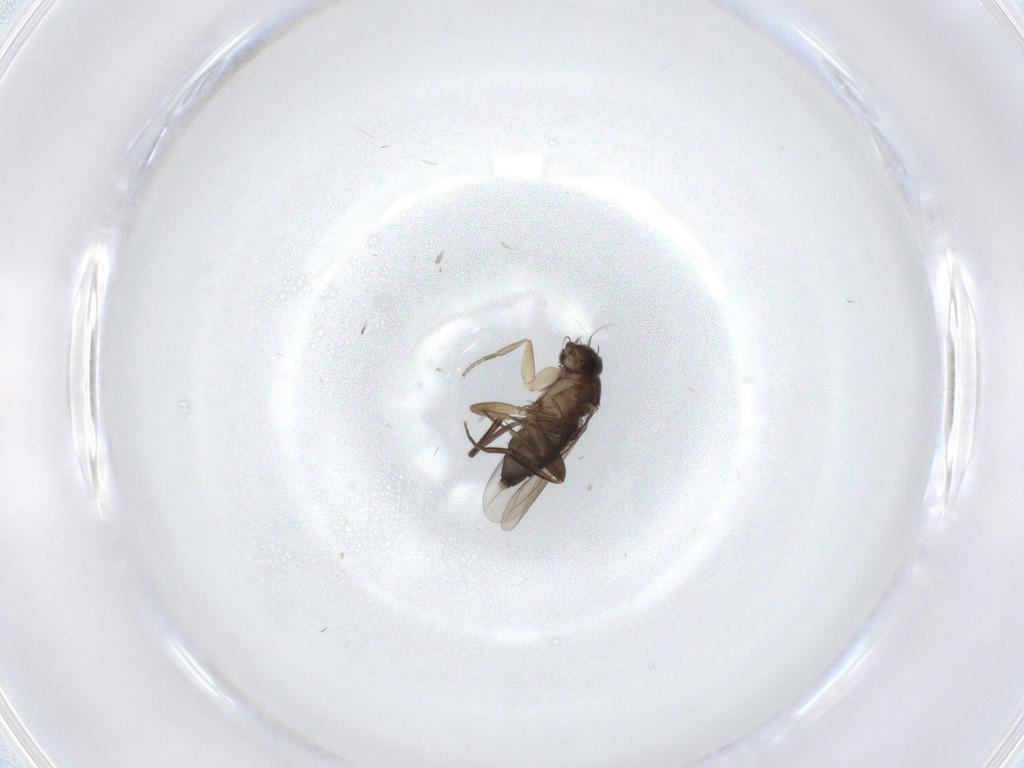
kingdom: Animalia
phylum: Arthropoda
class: Insecta
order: Diptera
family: Phoridae
